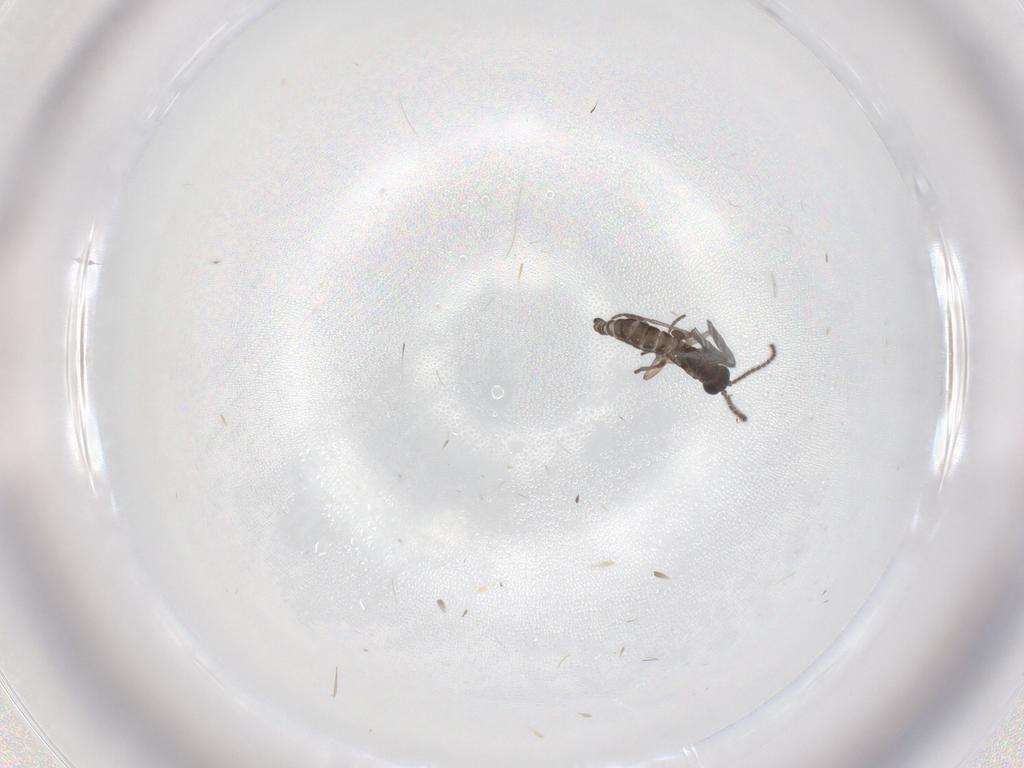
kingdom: Animalia
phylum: Arthropoda
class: Insecta
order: Diptera
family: Sciaridae
